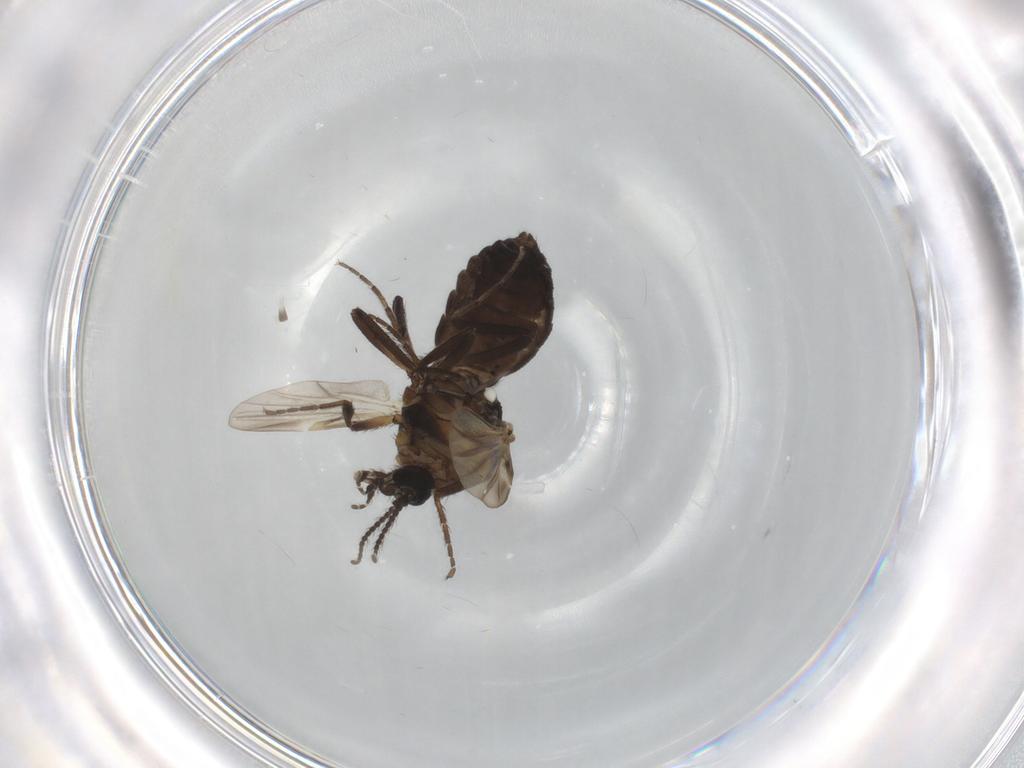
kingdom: Animalia
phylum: Arthropoda
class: Insecta
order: Diptera
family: Ceratopogonidae
